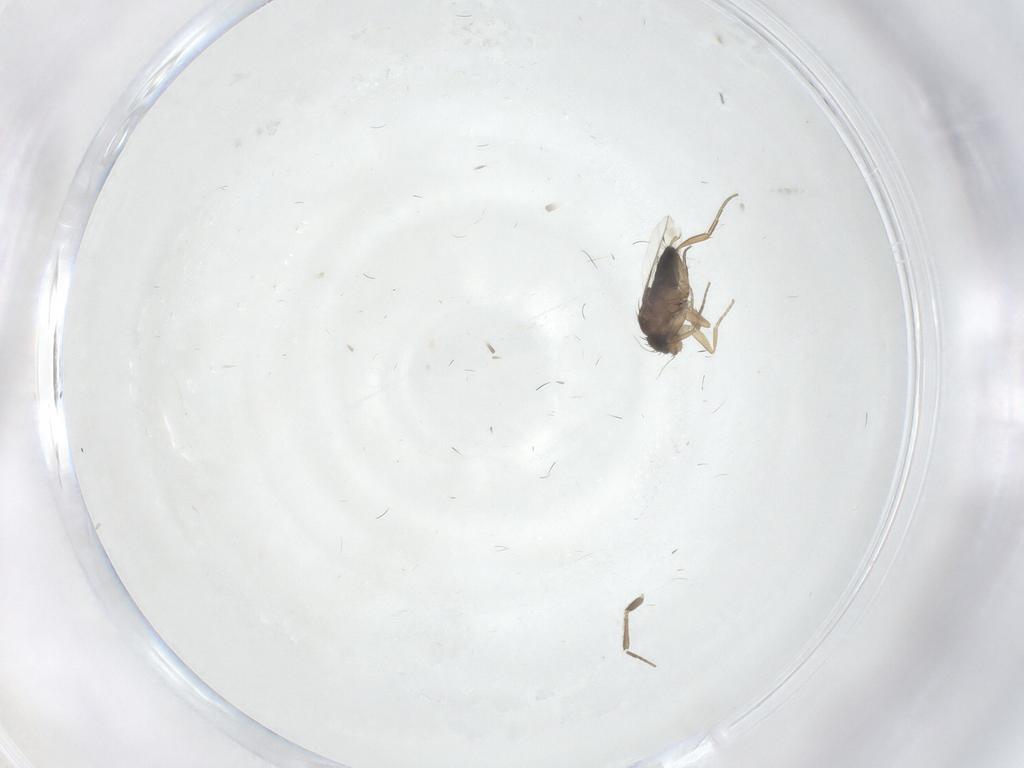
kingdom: Animalia
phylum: Arthropoda
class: Insecta
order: Diptera
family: Phoridae
